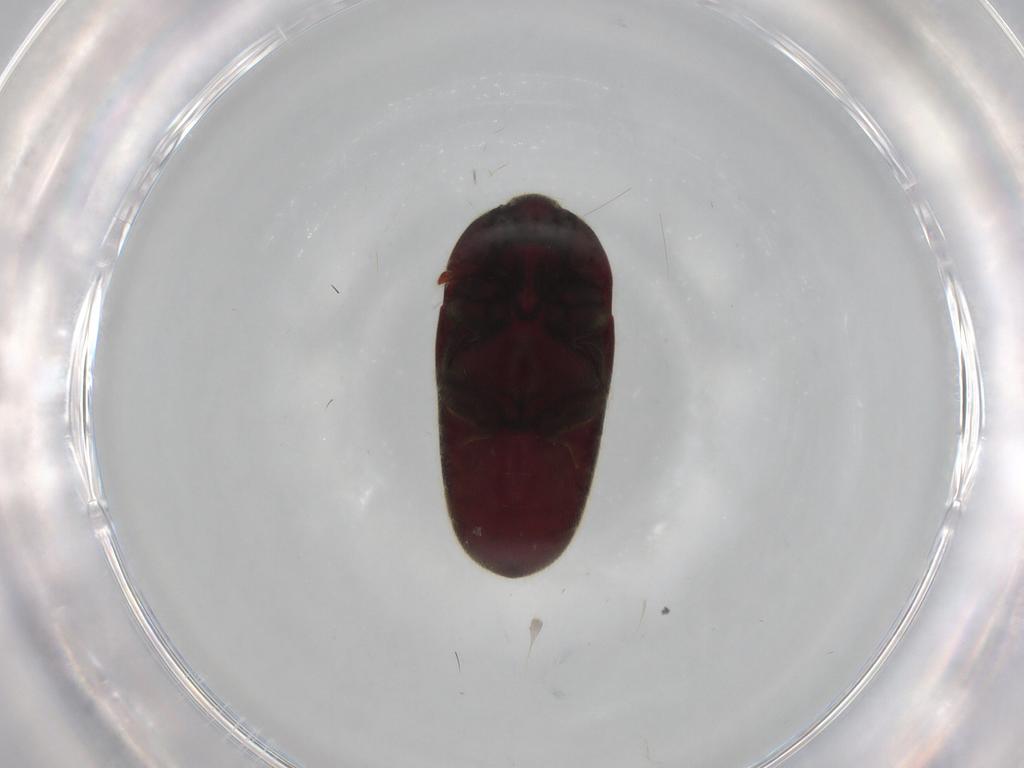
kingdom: Animalia
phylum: Arthropoda
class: Insecta
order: Coleoptera
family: Throscidae
